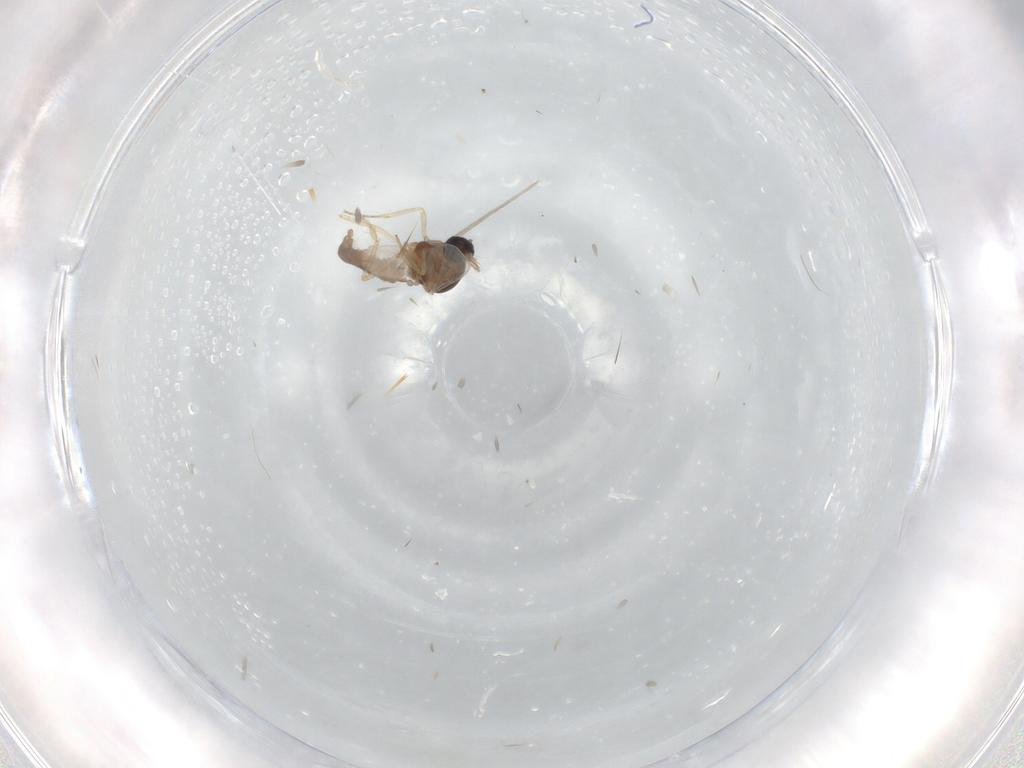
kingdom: Animalia
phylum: Arthropoda
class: Insecta
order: Diptera
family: Ceratopogonidae
